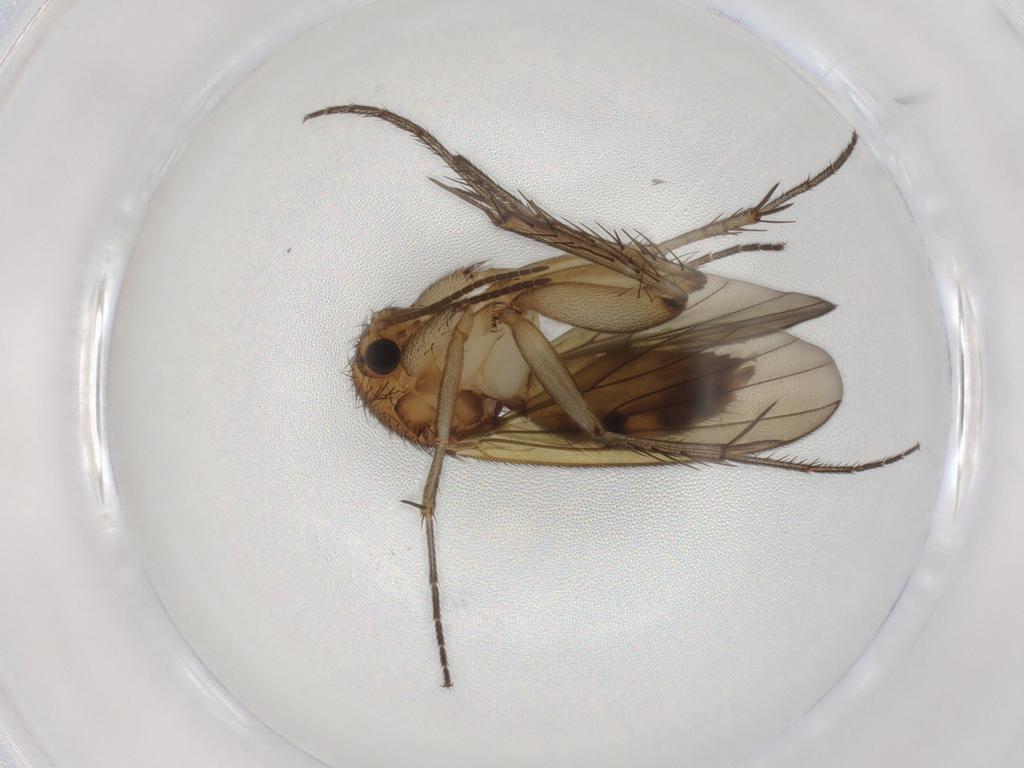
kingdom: Animalia
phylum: Arthropoda
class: Insecta
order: Diptera
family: Mycetophilidae
